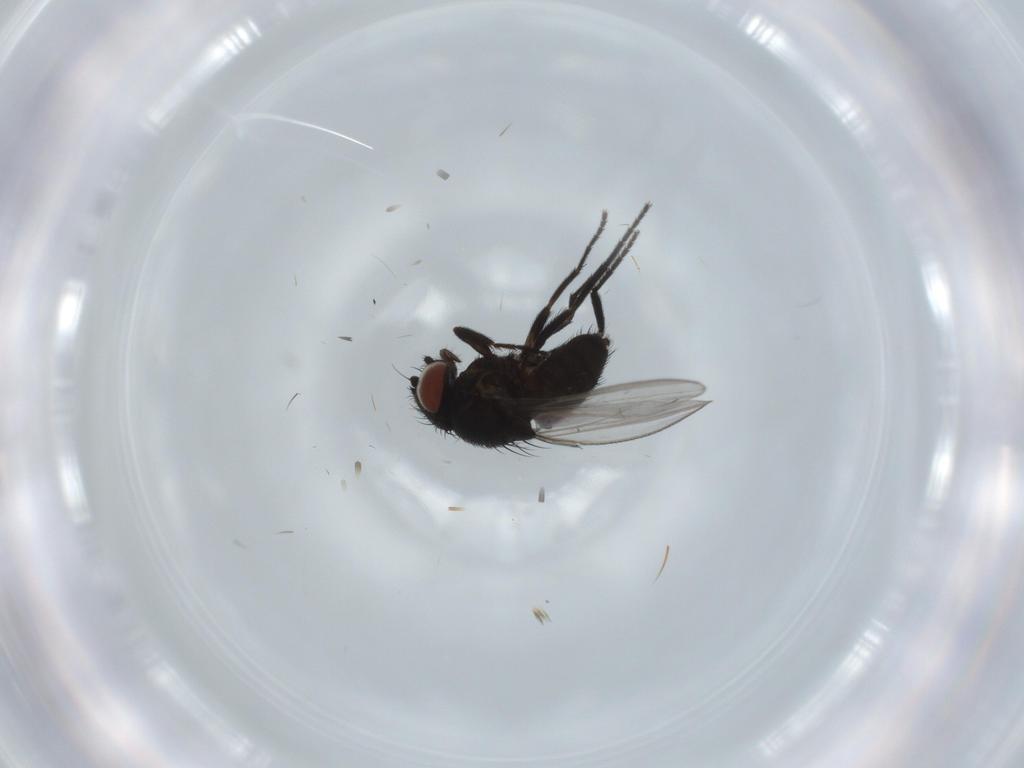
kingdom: Animalia
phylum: Arthropoda
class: Insecta
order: Diptera
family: Milichiidae
